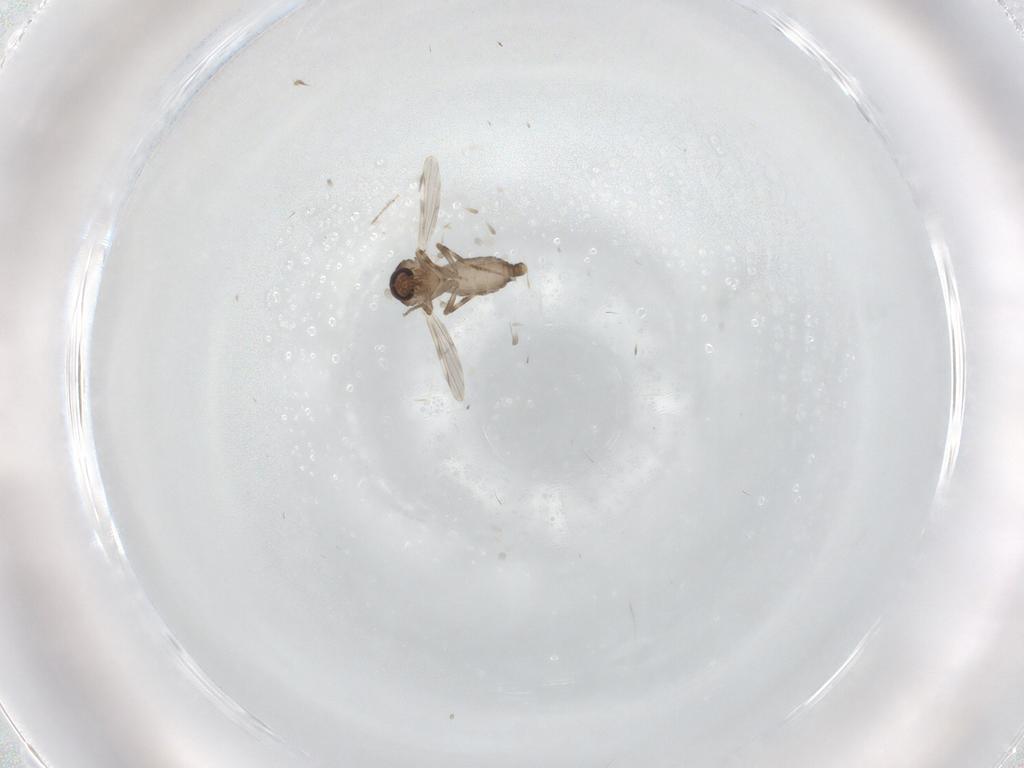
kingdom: Animalia
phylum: Arthropoda
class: Insecta
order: Diptera
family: Ceratopogonidae
